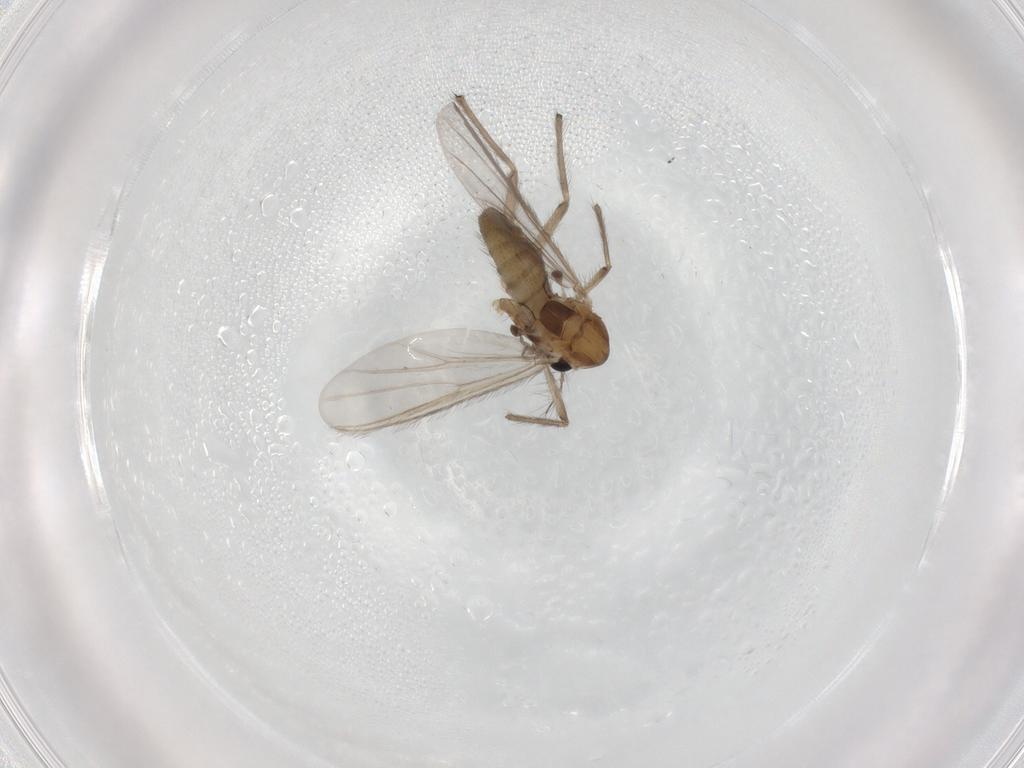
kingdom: Animalia
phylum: Arthropoda
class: Insecta
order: Diptera
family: Chironomidae
